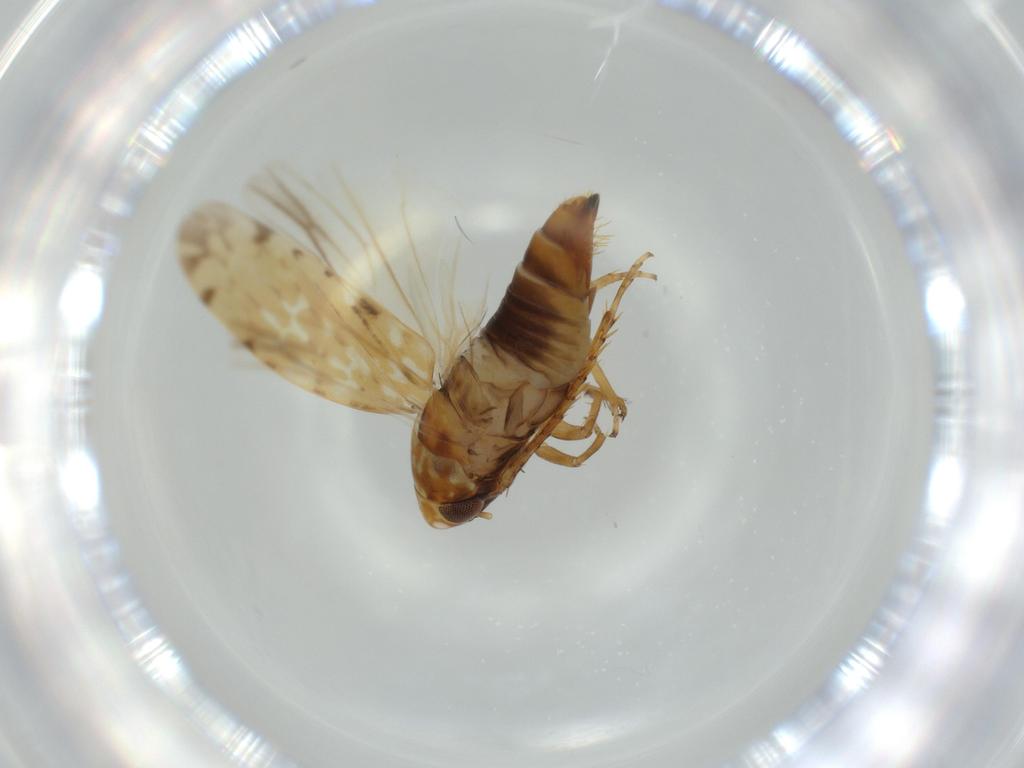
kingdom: Animalia
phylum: Arthropoda
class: Insecta
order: Hemiptera
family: Cicadellidae
